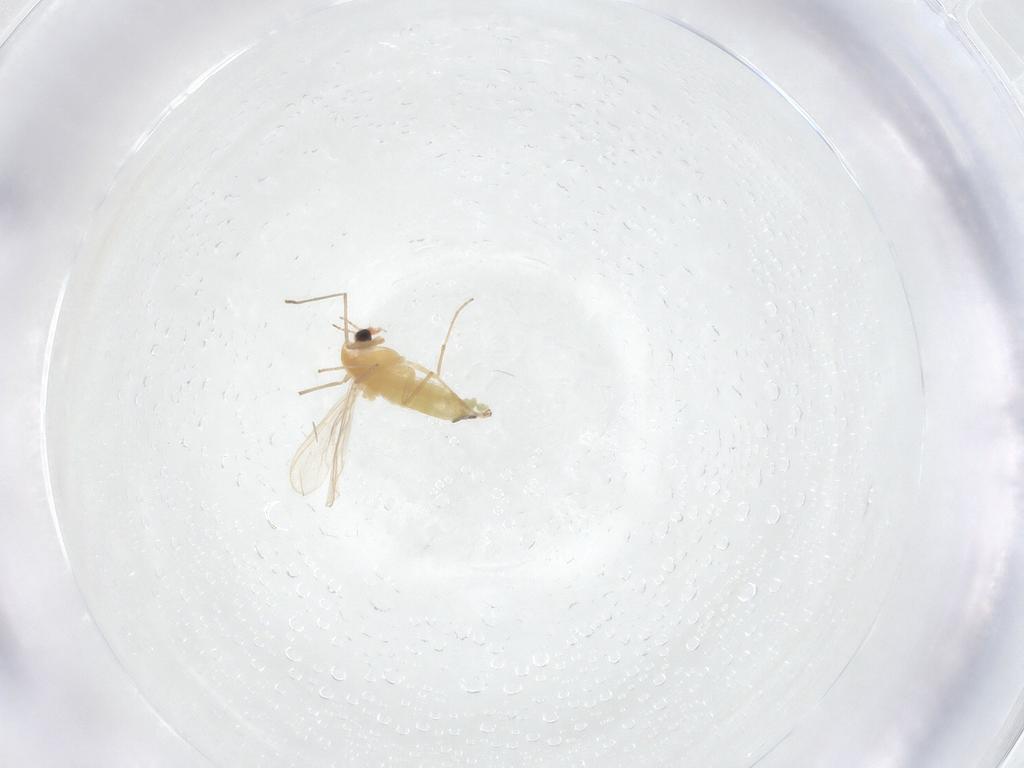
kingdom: Animalia
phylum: Arthropoda
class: Insecta
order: Diptera
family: Chironomidae
